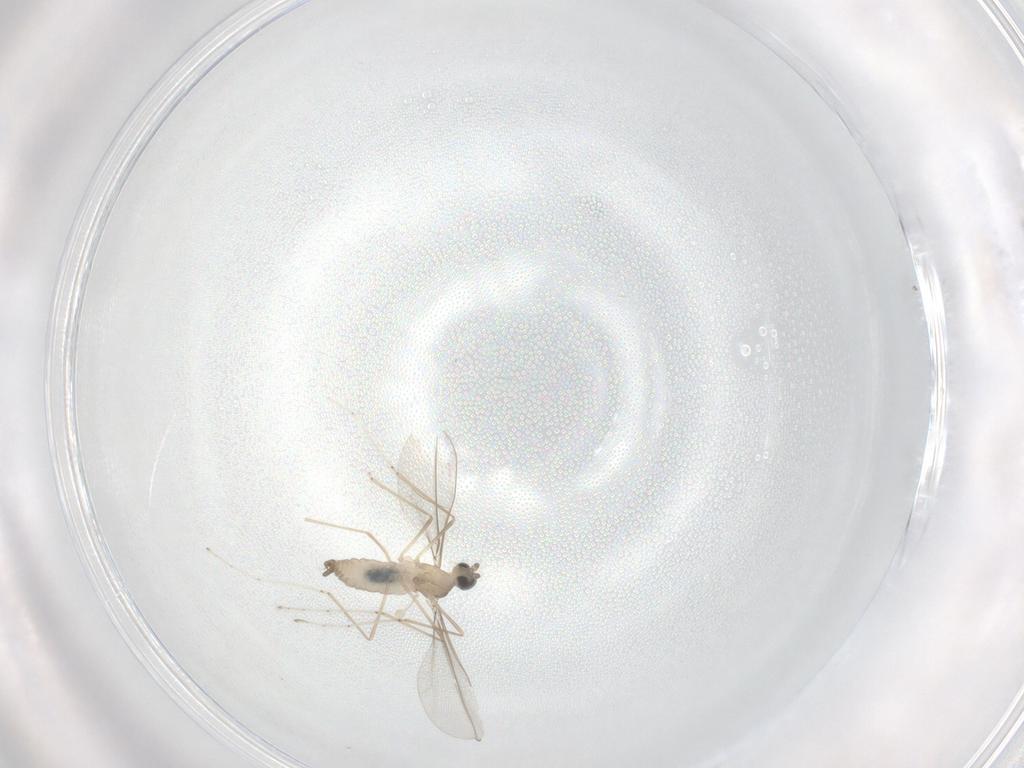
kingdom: Animalia
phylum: Arthropoda
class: Insecta
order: Diptera
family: Phoridae
